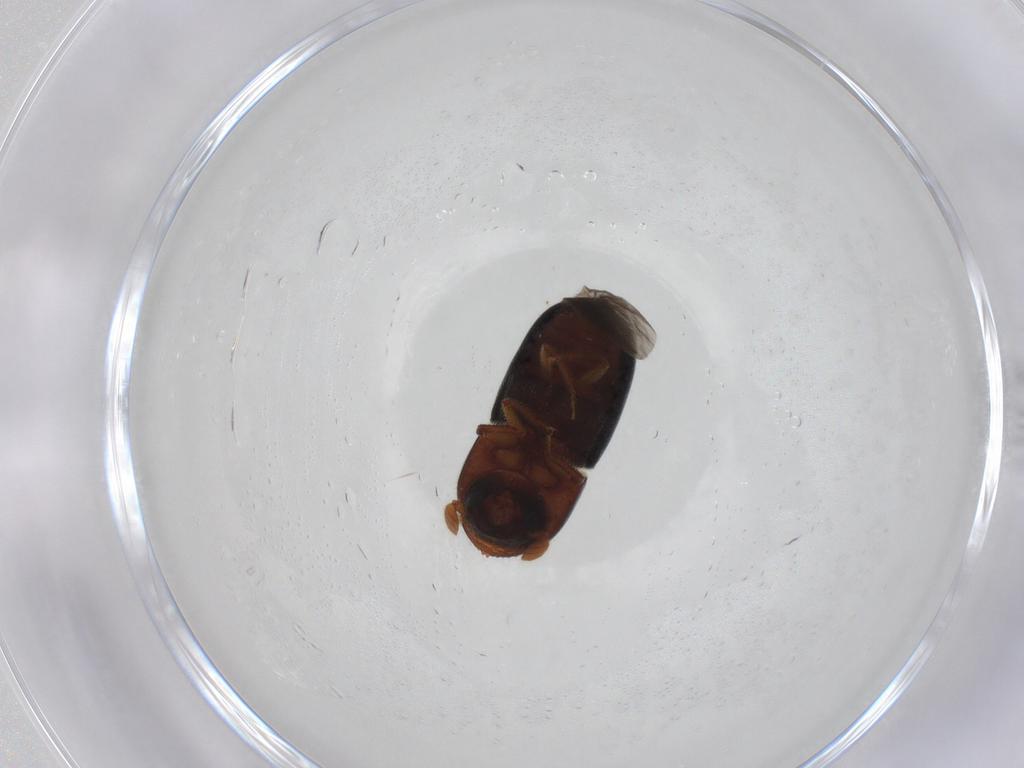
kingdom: Animalia
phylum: Arthropoda
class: Insecta
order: Coleoptera
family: Curculionidae
